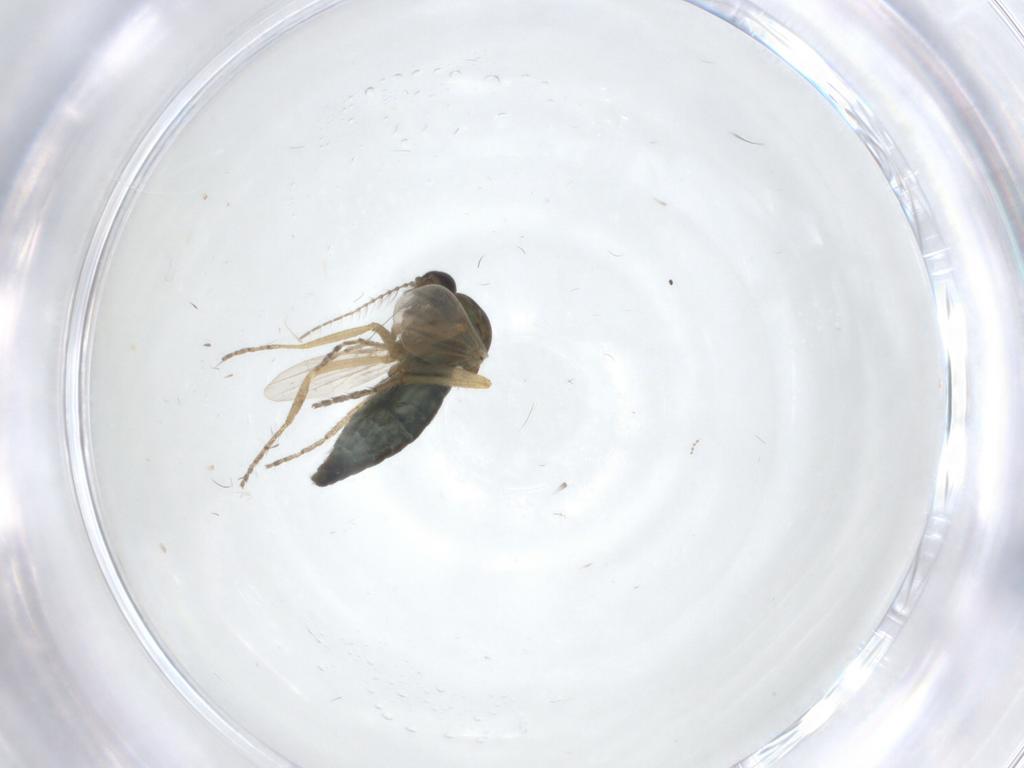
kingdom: Animalia
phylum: Arthropoda
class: Insecta
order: Diptera
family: Ceratopogonidae
